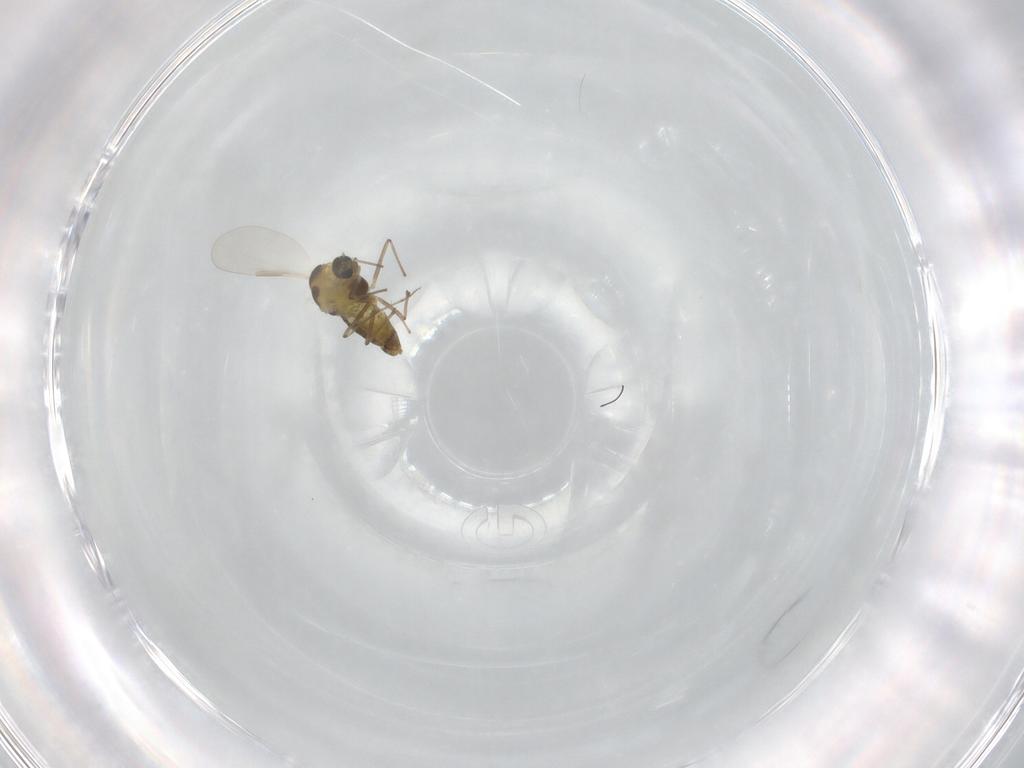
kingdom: Animalia
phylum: Arthropoda
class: Insecta
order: Diptera
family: Chironomidae
